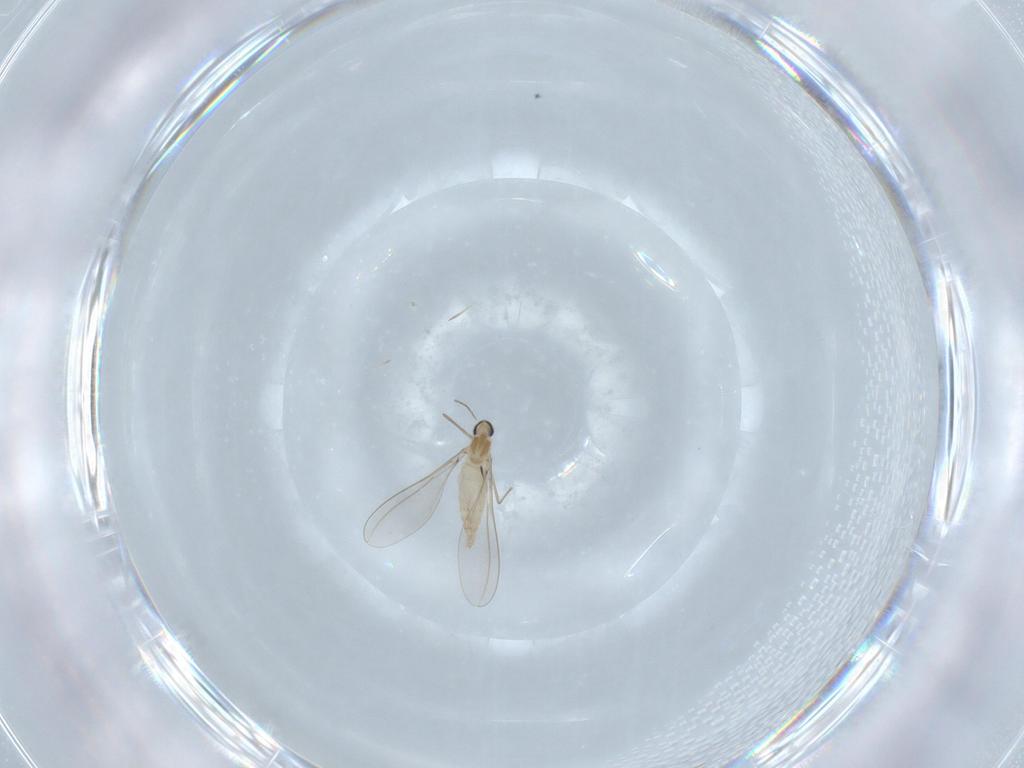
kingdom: Animalia
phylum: Arthropoda
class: Insecta
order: Diptera
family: Cecidomyiidae
